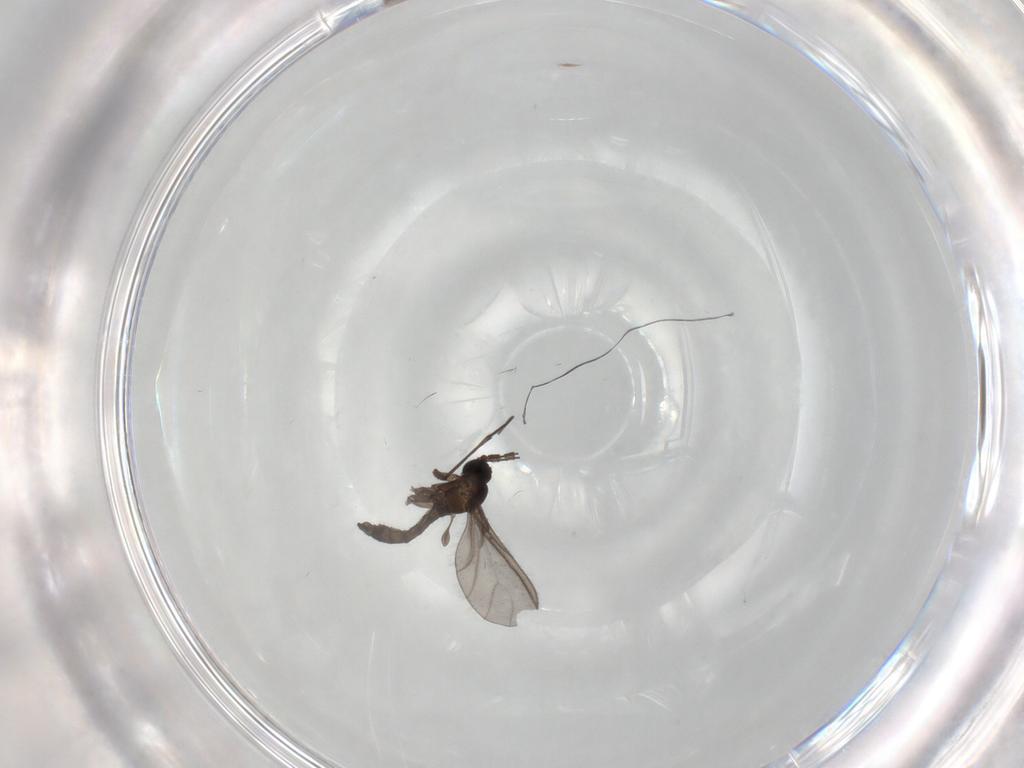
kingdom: Animalia
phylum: Arthropoda
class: Insecta
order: Diptera
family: Sciaridae
